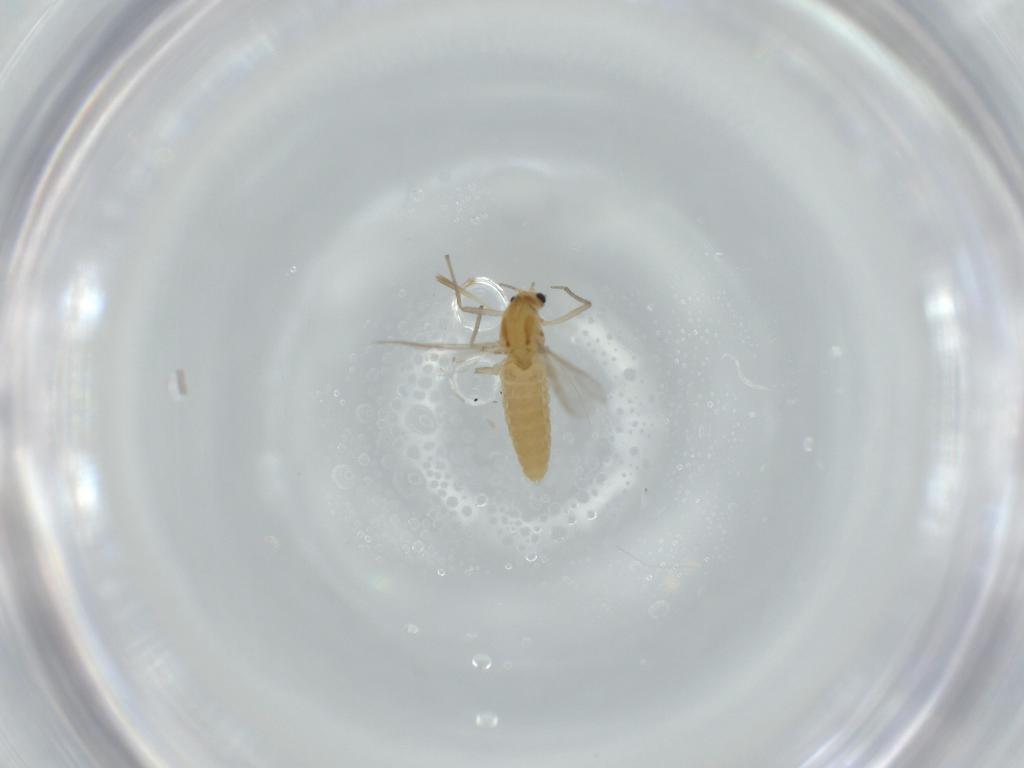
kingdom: Animalia
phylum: Arthropoda
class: Insecta
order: Diptera
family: Chironomidae
